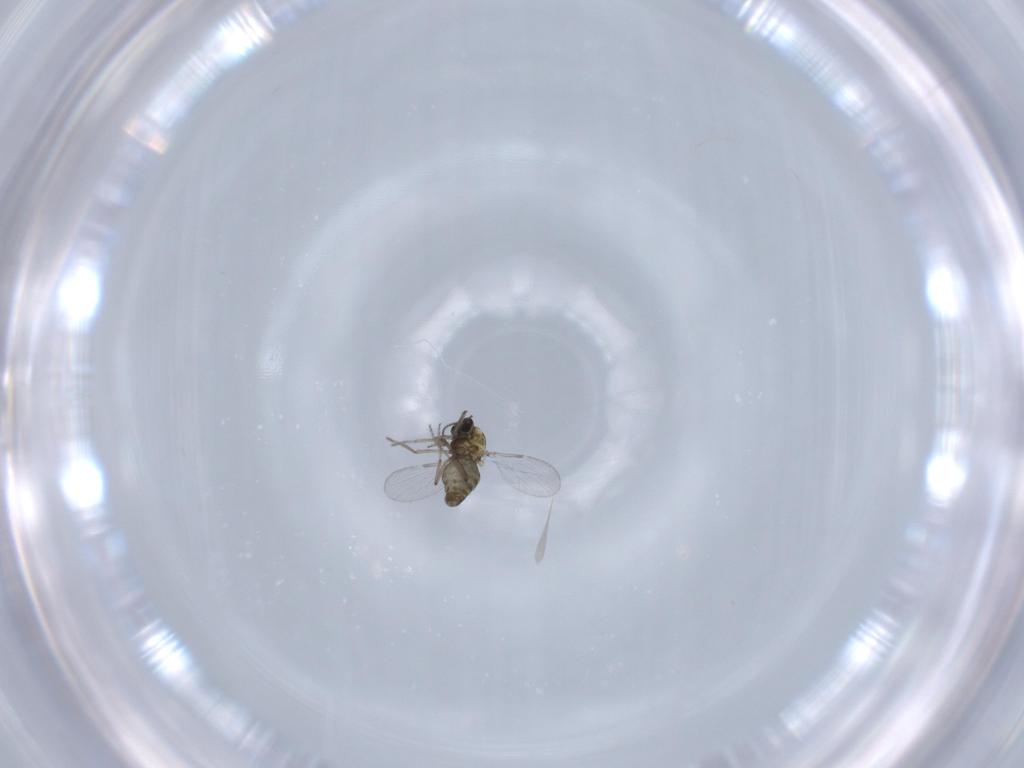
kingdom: Animalia
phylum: Arthropoda
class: Insecta
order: Diptera
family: Ceratopogonidae
